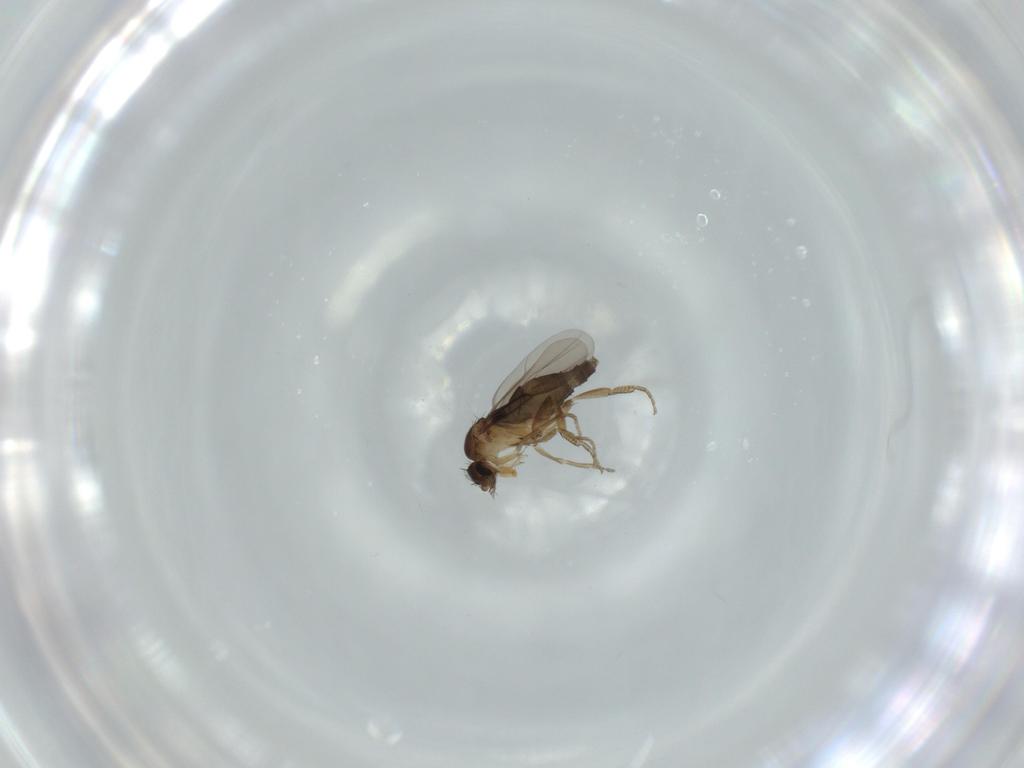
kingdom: Animalia
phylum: Arthropoda
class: Insecta
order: Diptera
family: Phoridae
